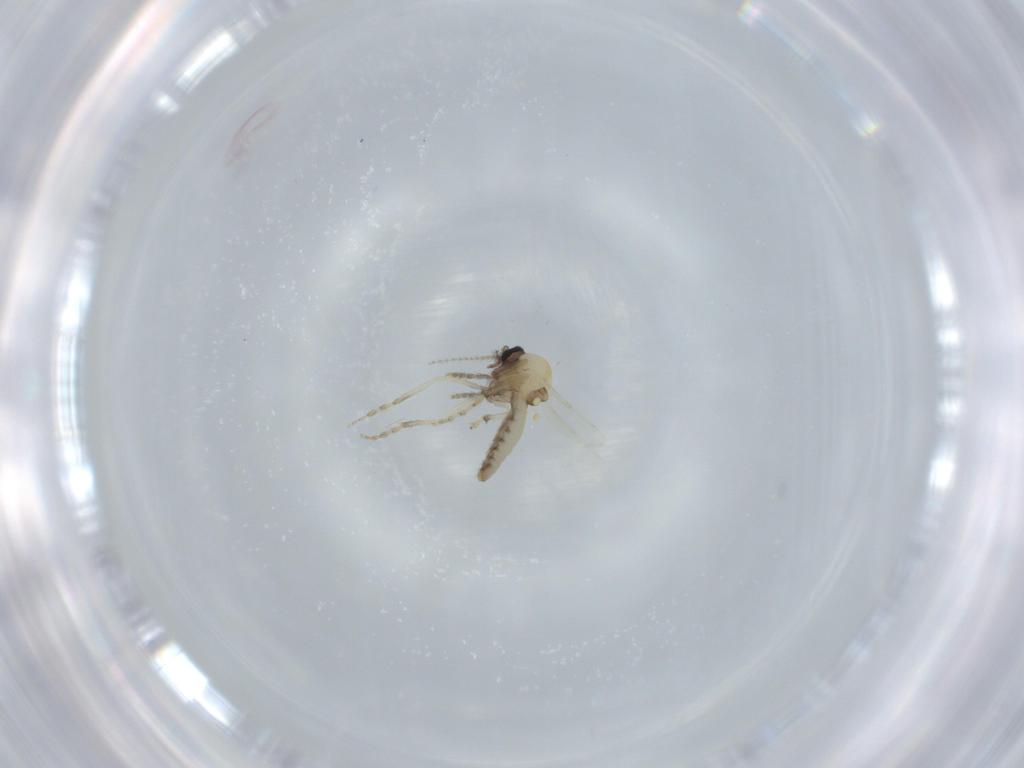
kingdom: Animalia
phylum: Arthropoda
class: Insecta
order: Diptera
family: Ceratopogonidae
